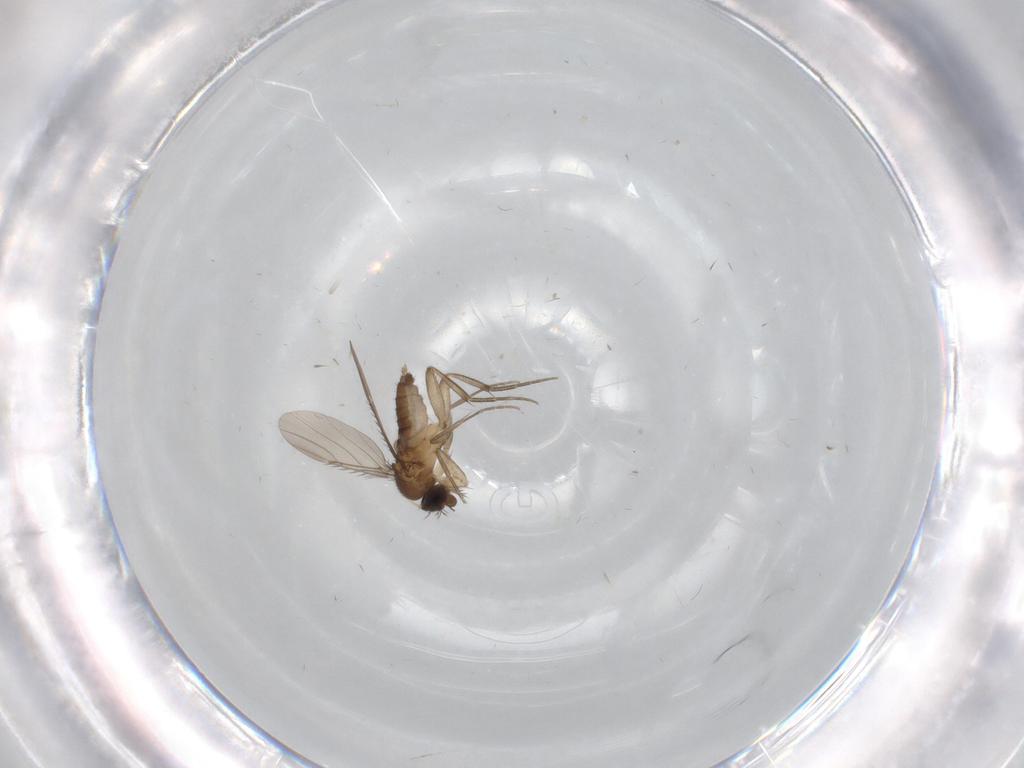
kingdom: Animalia
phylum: Arthropoda
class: Insecta
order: Diptera
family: Phoridae
